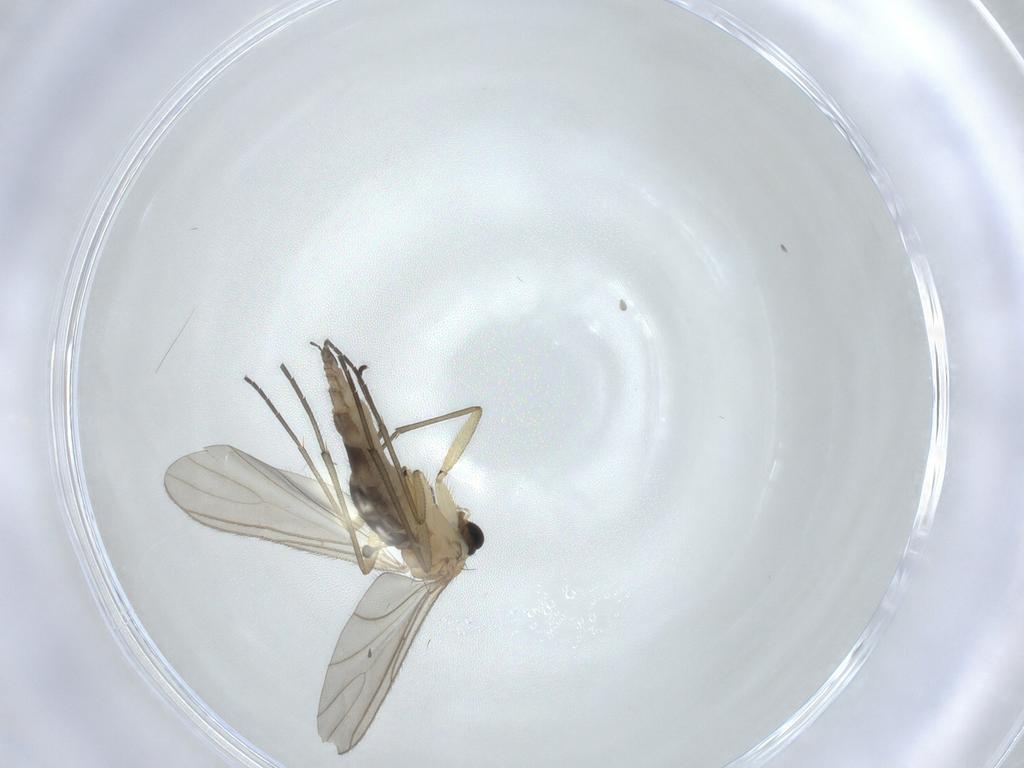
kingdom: Animalia
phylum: Arthropoda
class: Insecta
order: Diptera
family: Sciaridae
